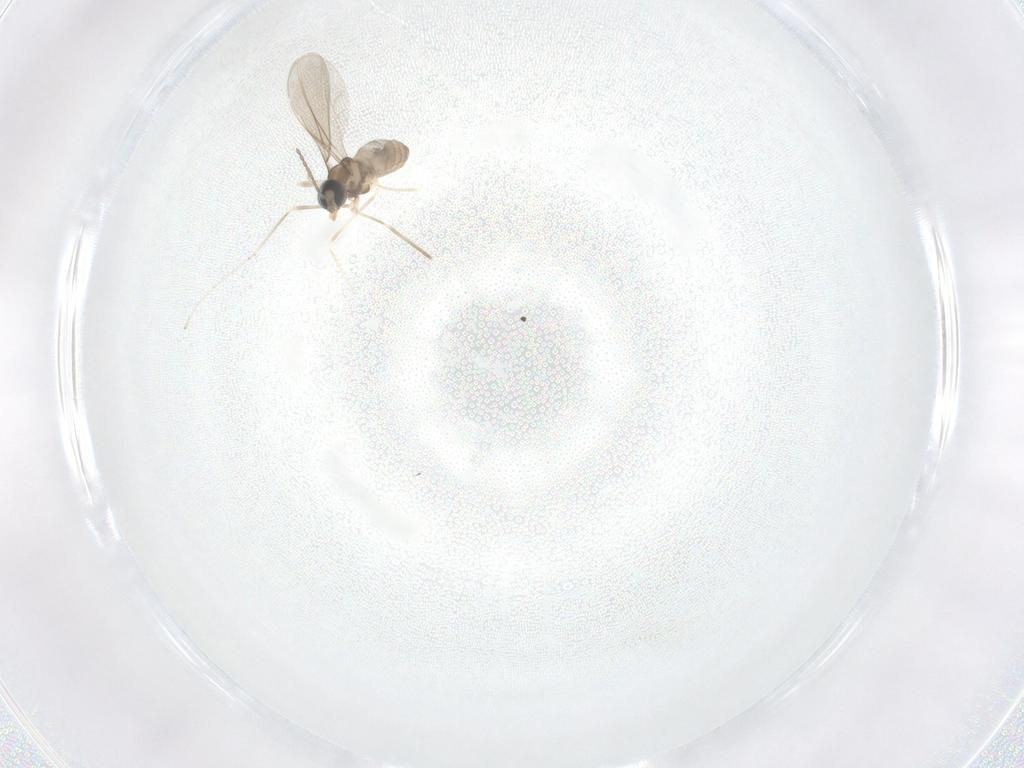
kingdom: Animalia
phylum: Arthropoda
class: Insecta
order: Diptera
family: Cecidomyiidae
